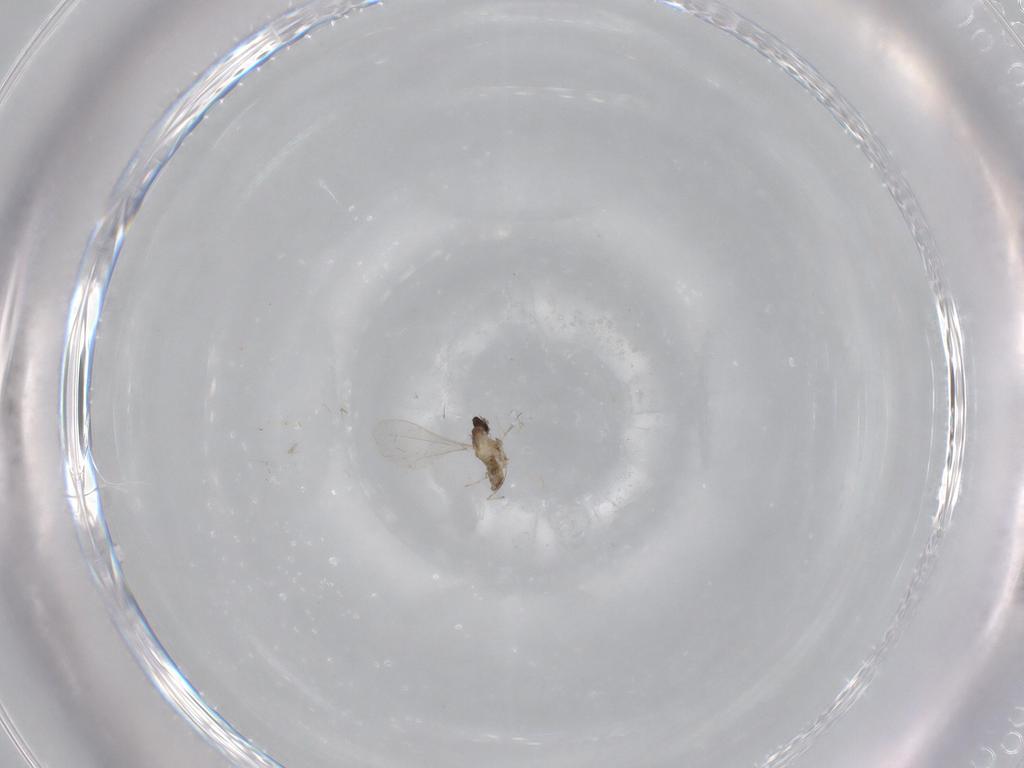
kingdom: Animalia
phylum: Arthropoda
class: Insecta
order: Diptera
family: Cecidomyiidae
